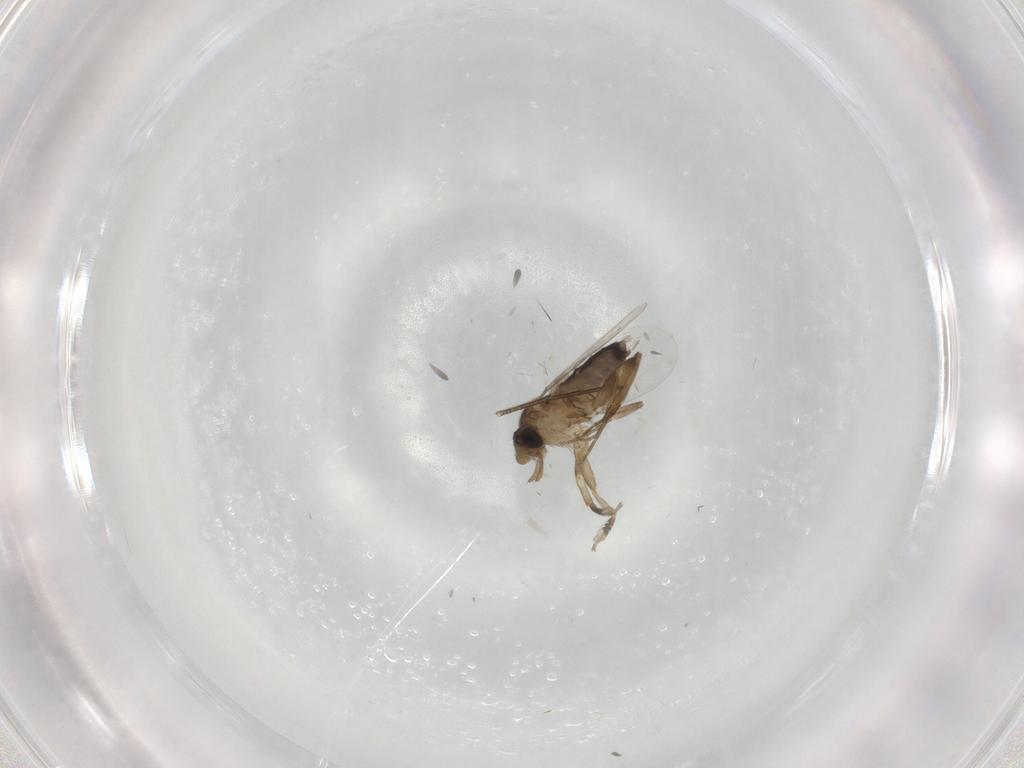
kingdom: Animalia
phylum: Arthropoda
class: Insecta
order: Diptera
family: Phoridae
